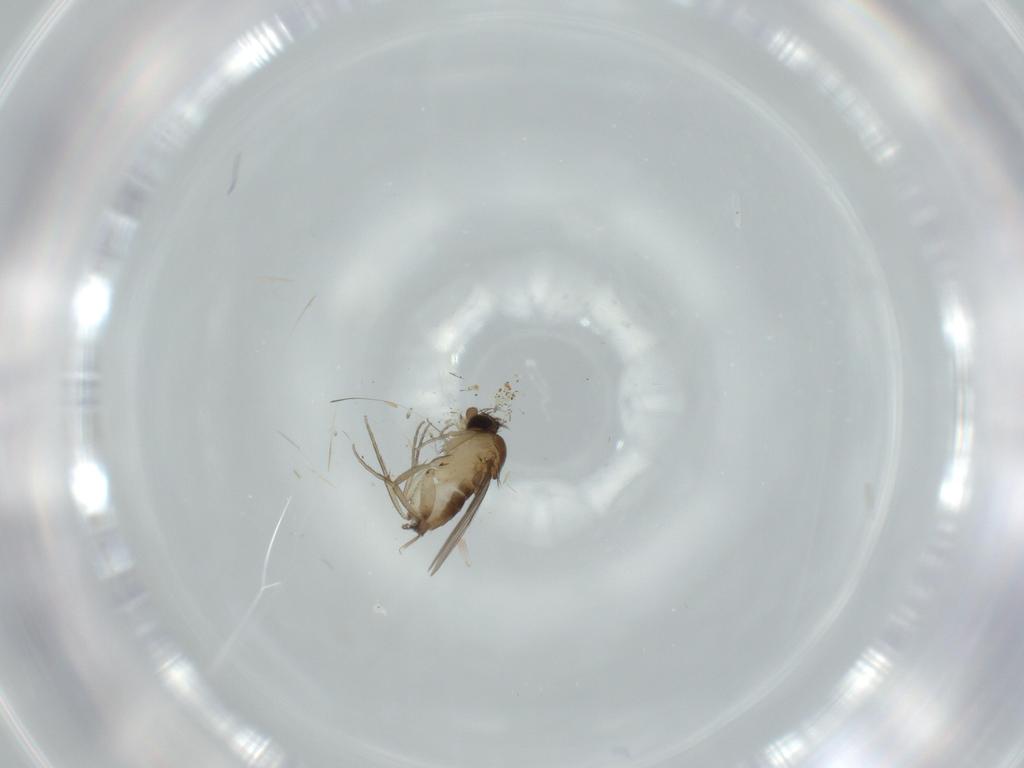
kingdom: Animalia
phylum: Arthropoda
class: Insecta
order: Diptera
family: Phoridae
